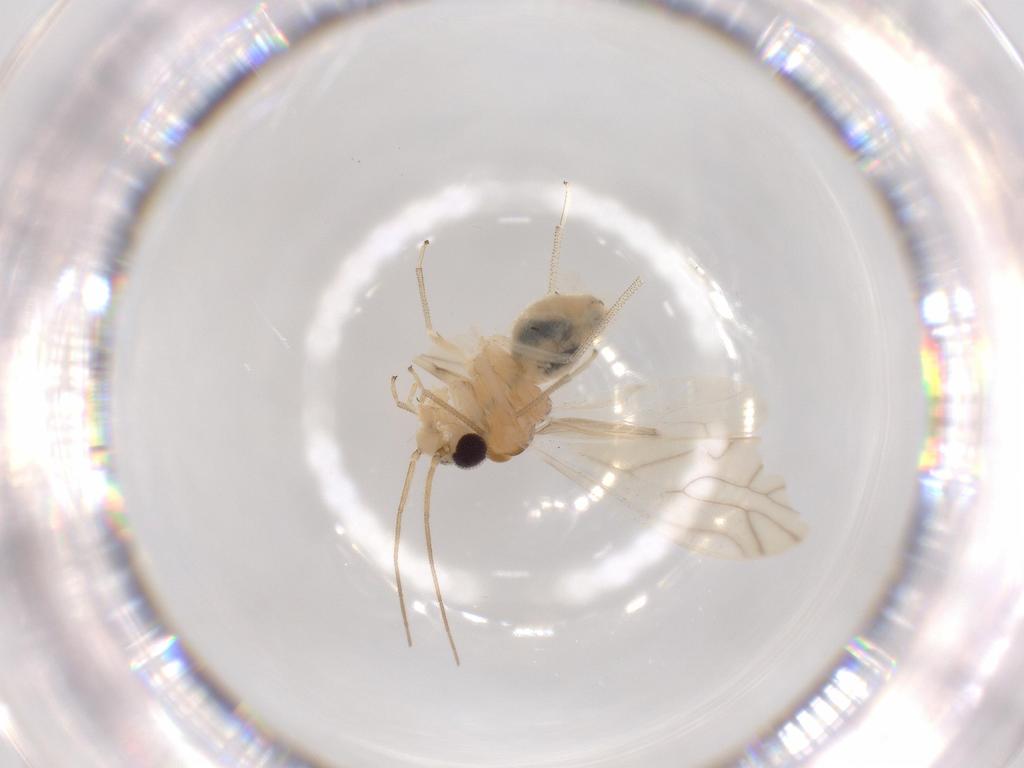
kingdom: Animalia
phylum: Arthropoda
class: Insecta
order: Psocodea
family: Caeciliusidae
